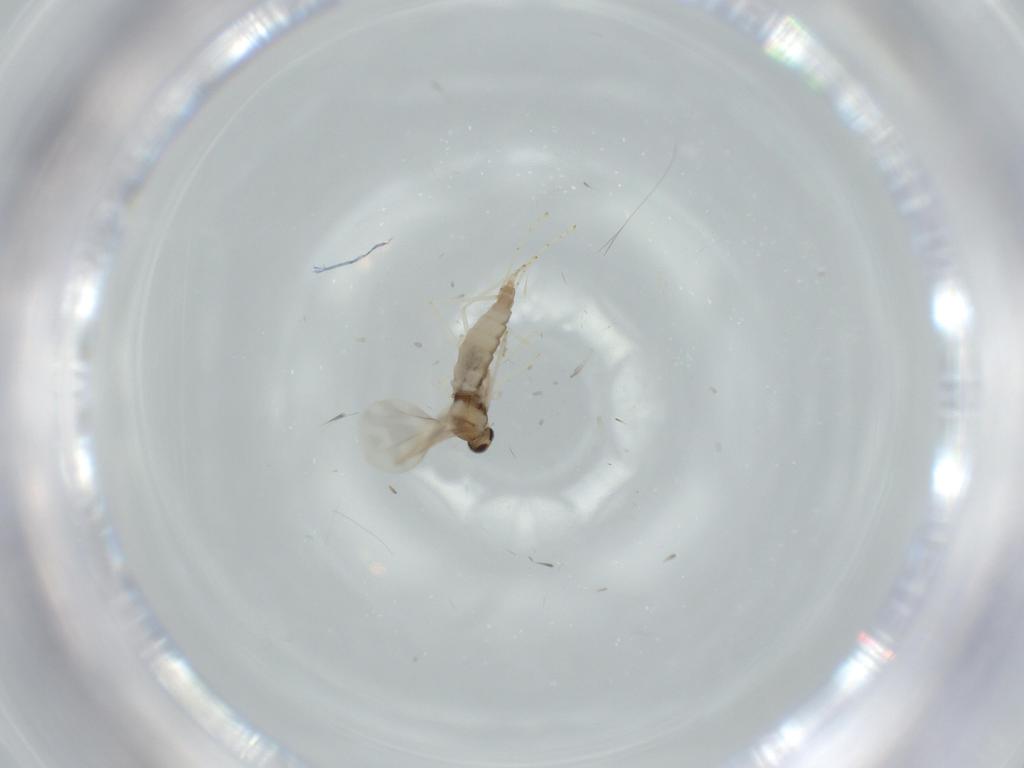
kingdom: Animalia
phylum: Arthropoda
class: Insecta
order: Diptera
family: Cecidomyiidae
